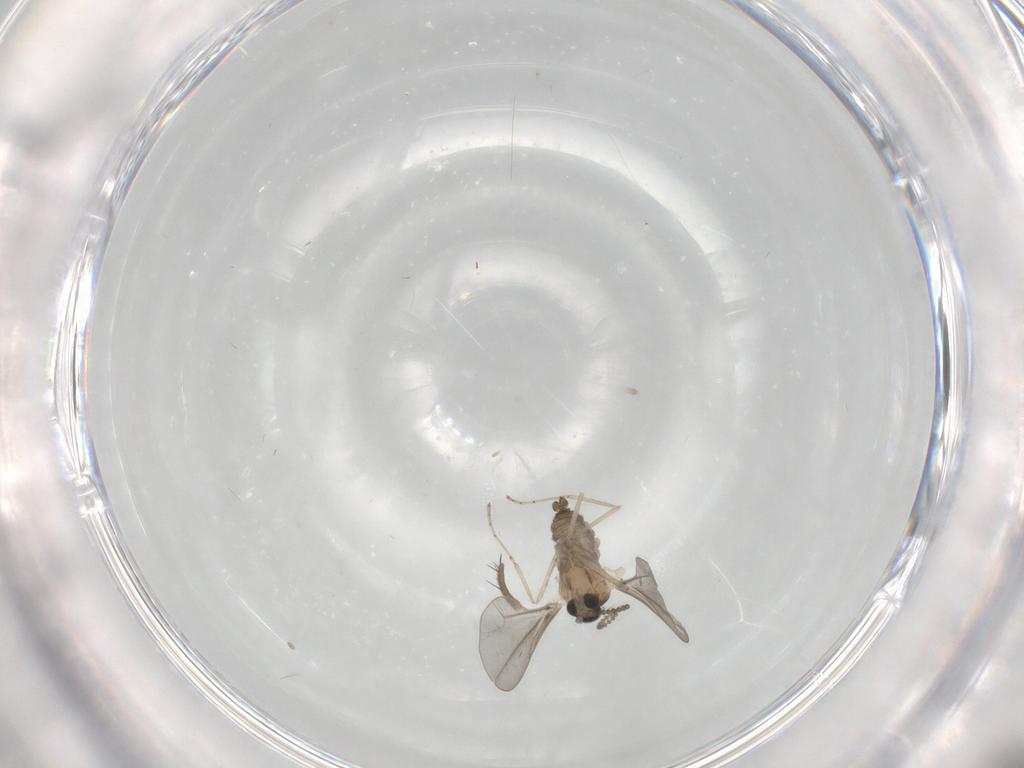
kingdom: Animalia
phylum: Arthropoda
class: Insecta
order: Diptera
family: Cecidomyiidae
